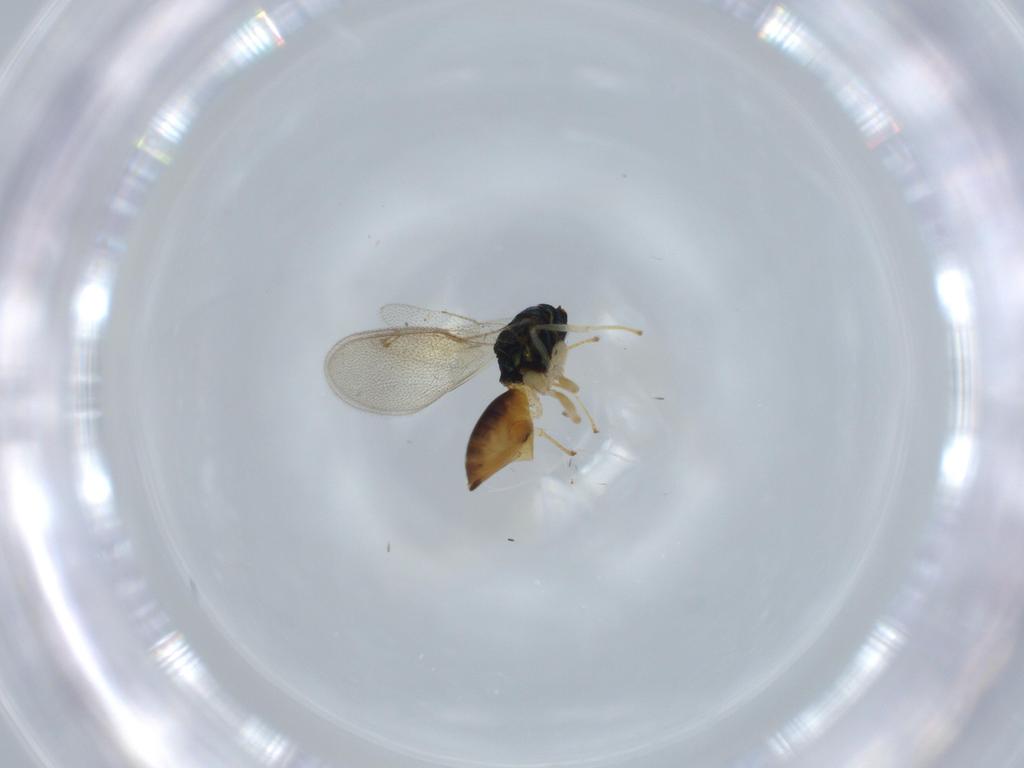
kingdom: Animalia
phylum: Arthropoda
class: Insecta
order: Hymenoptera
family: Pteromalidae
